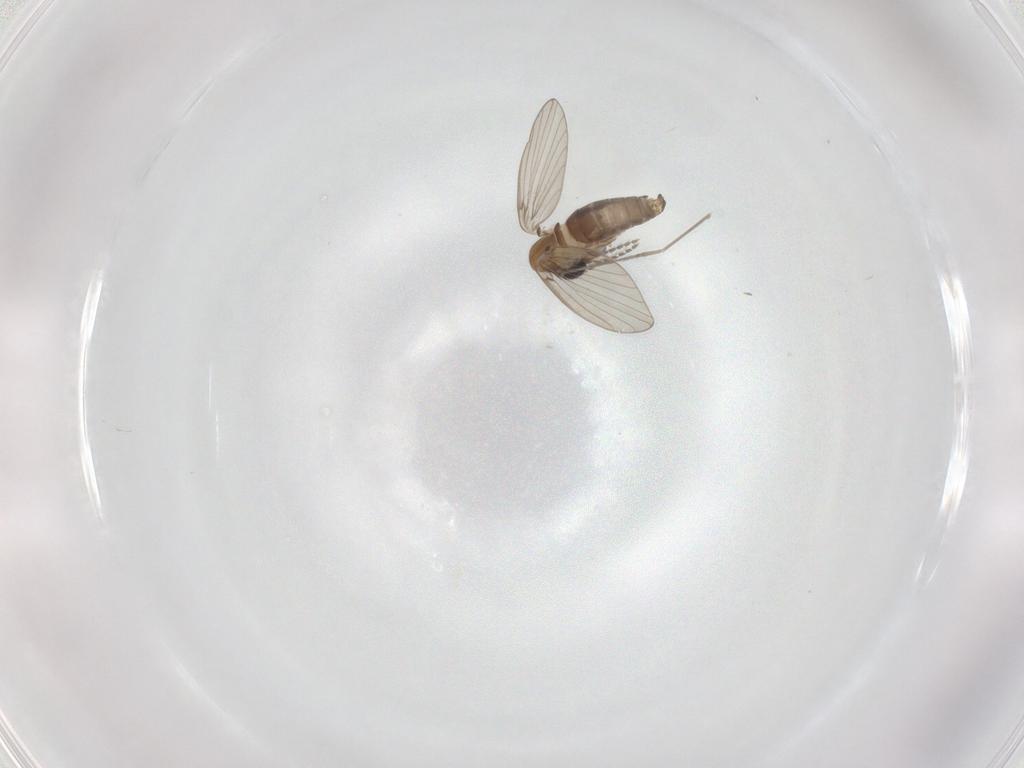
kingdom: Animalia
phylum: Arthropoda
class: Insecta
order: Diptera
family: Cecidomyiidae
